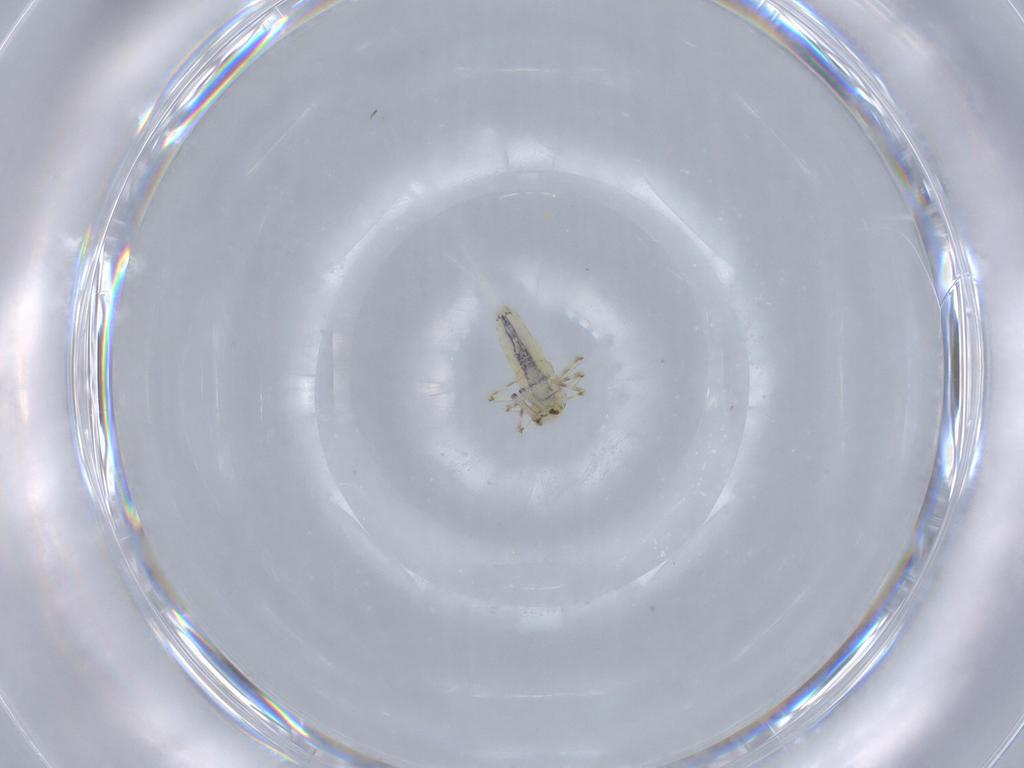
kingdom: Animalia
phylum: Arthropoda
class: Collembola
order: Entomobryomorpha
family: Paronellidae
